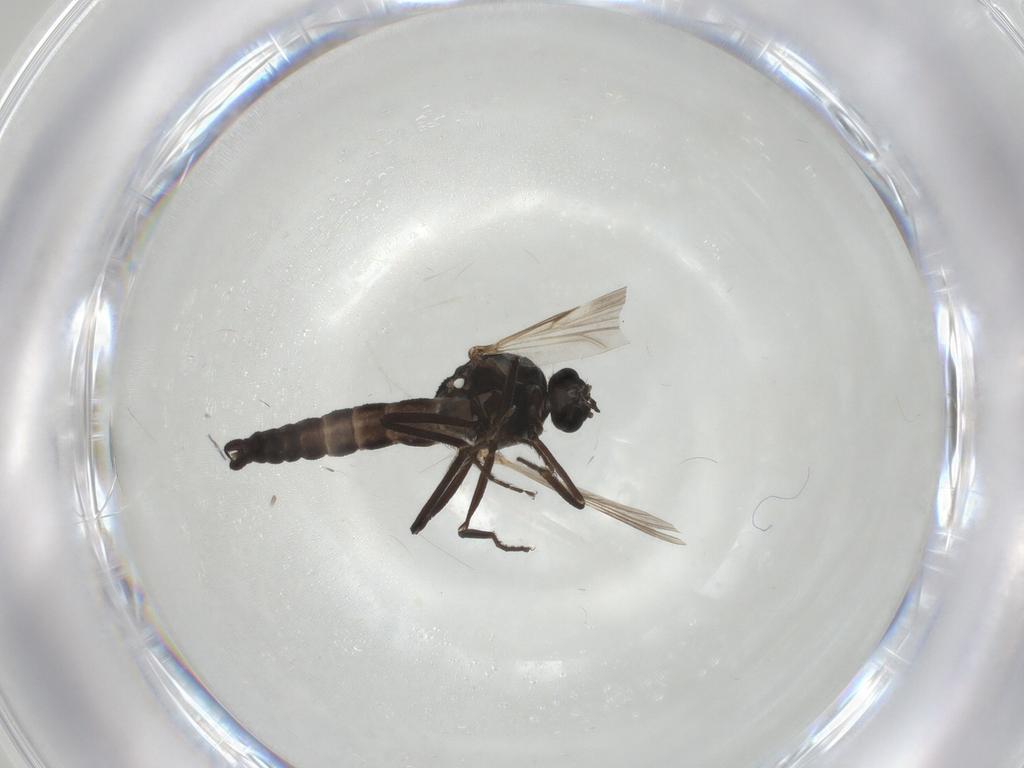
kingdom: Animalia
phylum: Arthropoda
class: Insecta
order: Diptera
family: Ceratopogonidae
